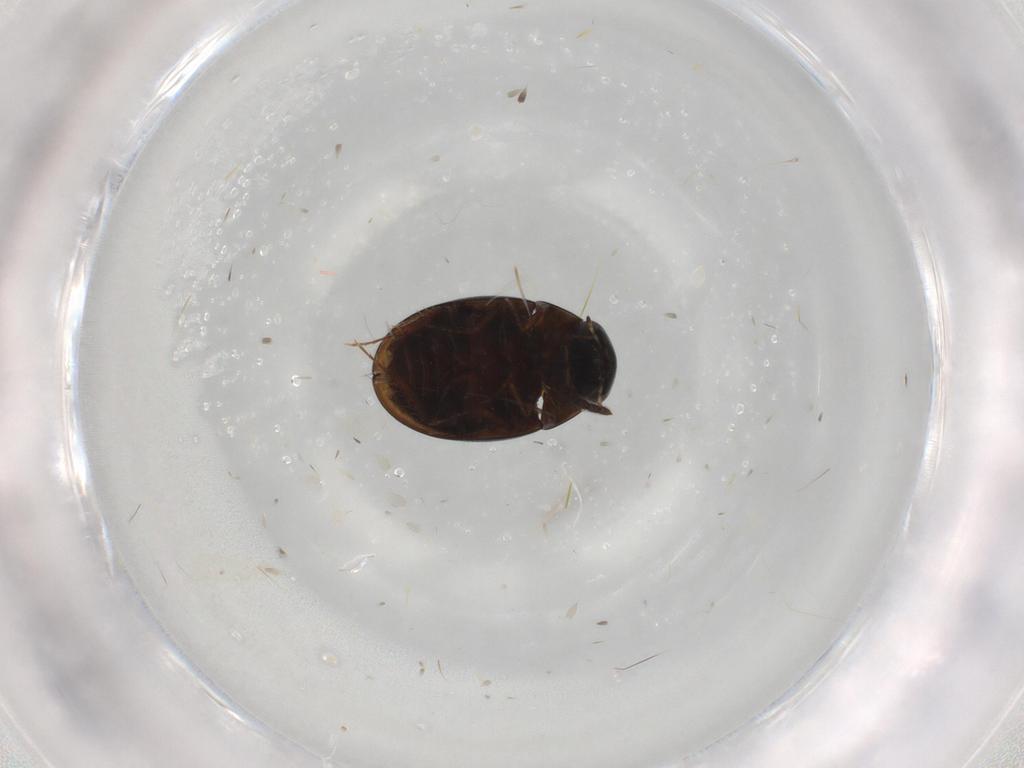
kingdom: Animalia
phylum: Arthropoda
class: Insecta
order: Coleoptera
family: Hydrophilidae
